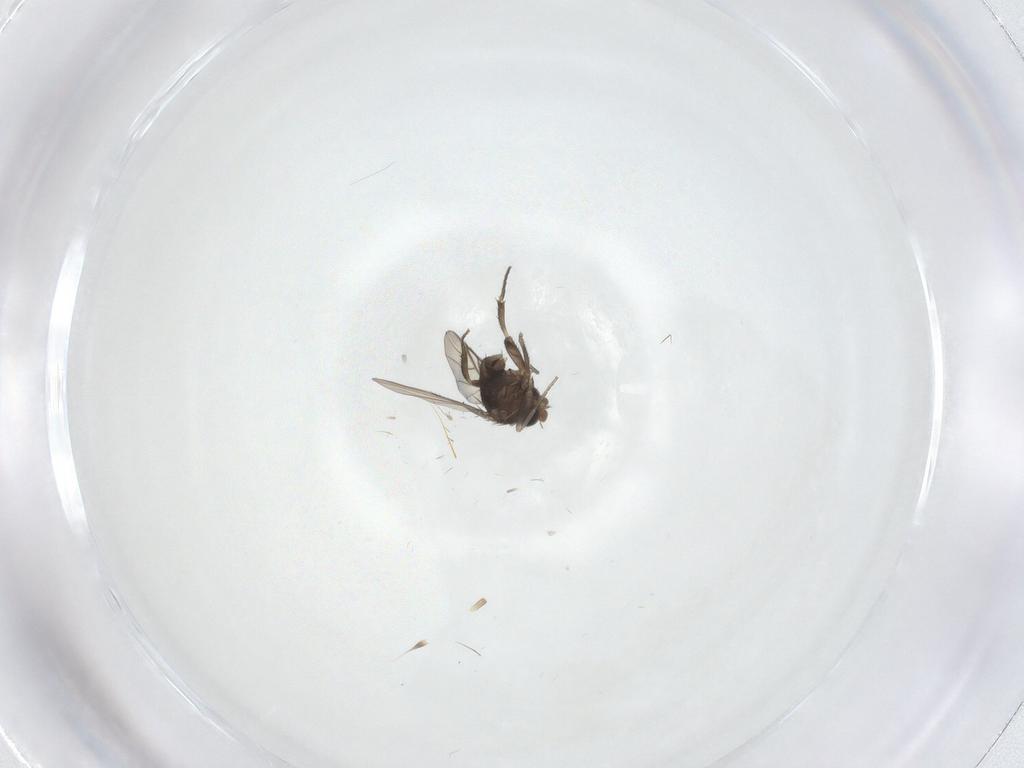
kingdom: Animalia
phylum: Arthropoda
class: Insecta
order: Diptera
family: Phoridae
